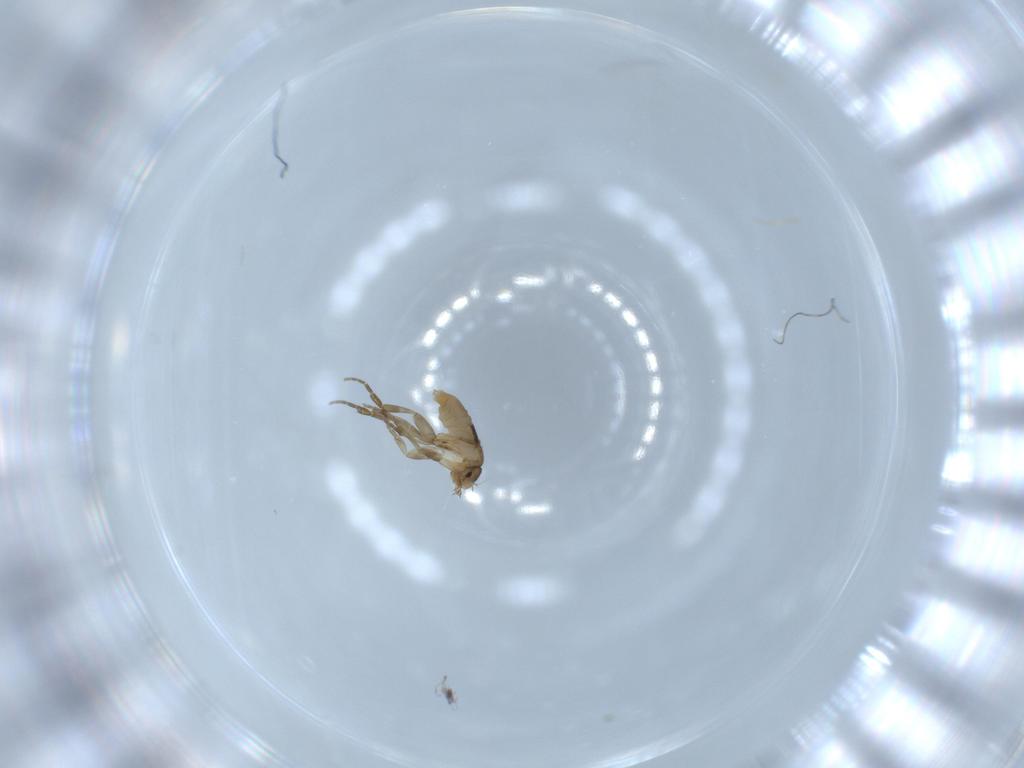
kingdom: Animalia
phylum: Arthropoda
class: Insecta
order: Diptera
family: Phoridae
